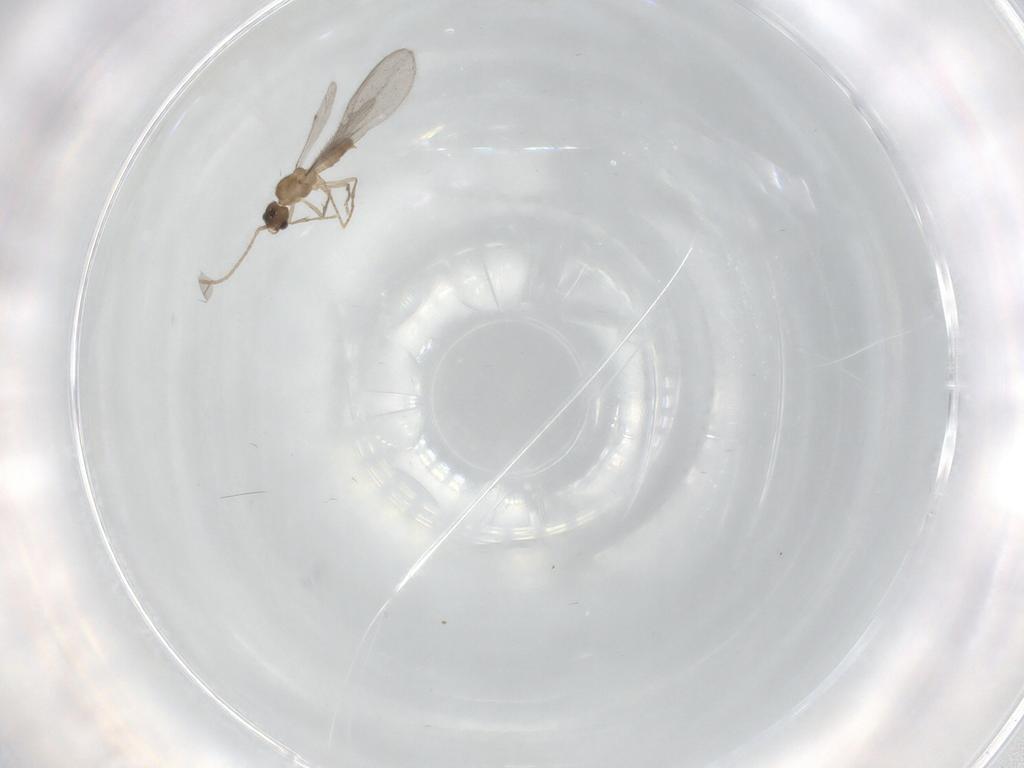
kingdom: Animalia
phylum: Arthropoda
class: Insecta
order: Hymenoptera
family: Formicidae
